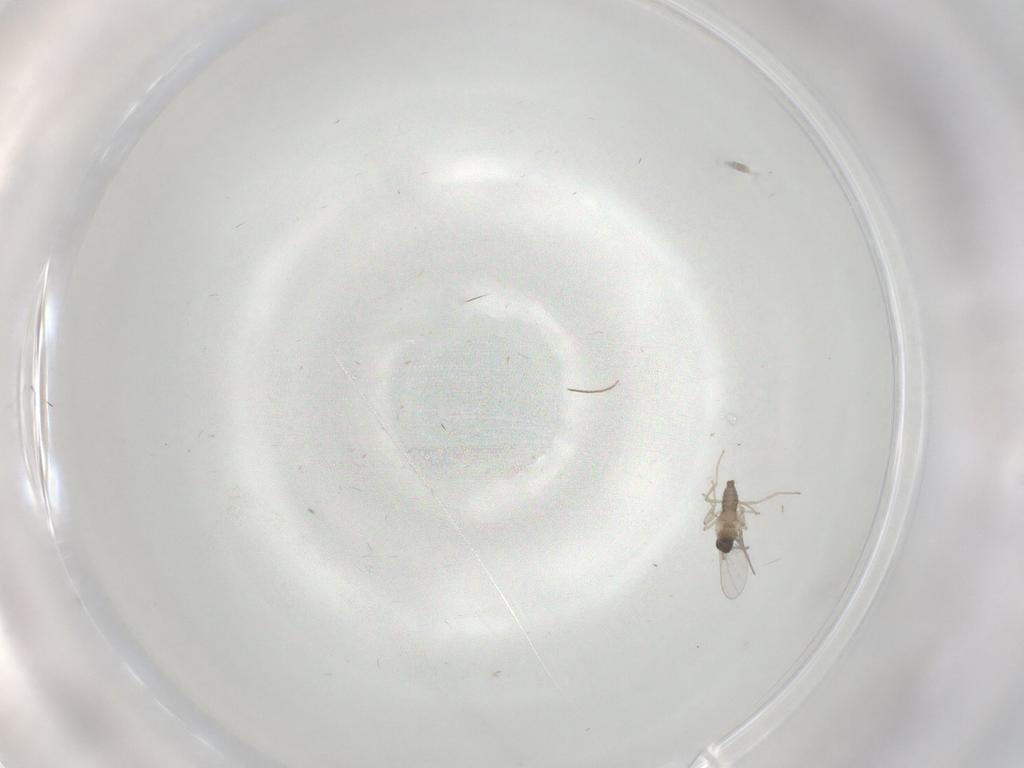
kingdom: Animalia
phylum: Arthropoda
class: Insecta
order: Diptera
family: Cecidomyiidae
